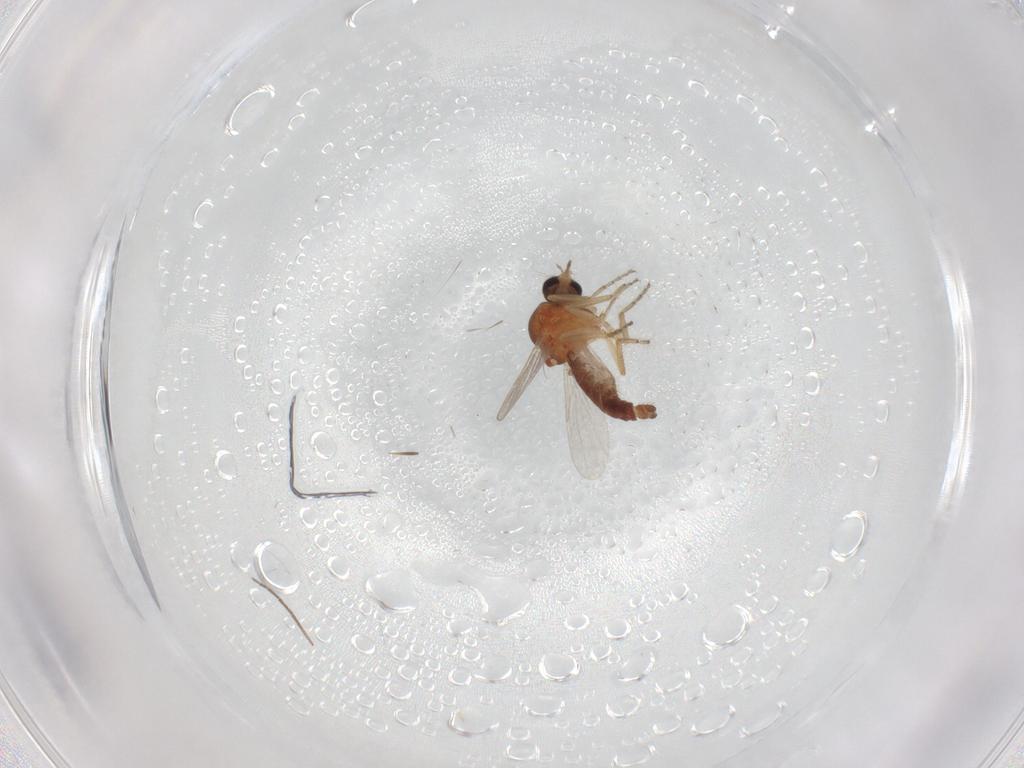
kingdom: Animalia
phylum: Arthropoda
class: Insecta
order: Diptera
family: Ceratopogonidae
